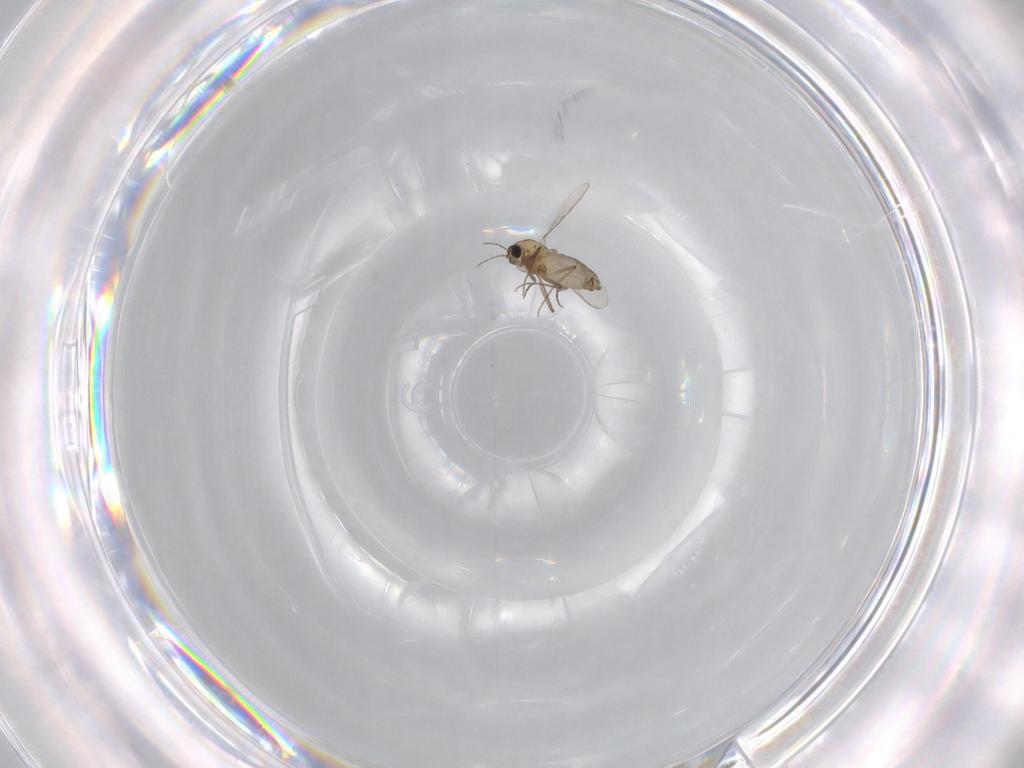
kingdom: Animalia
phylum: Arthropoda
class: Insecta
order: Diptera
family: Chironomidae
